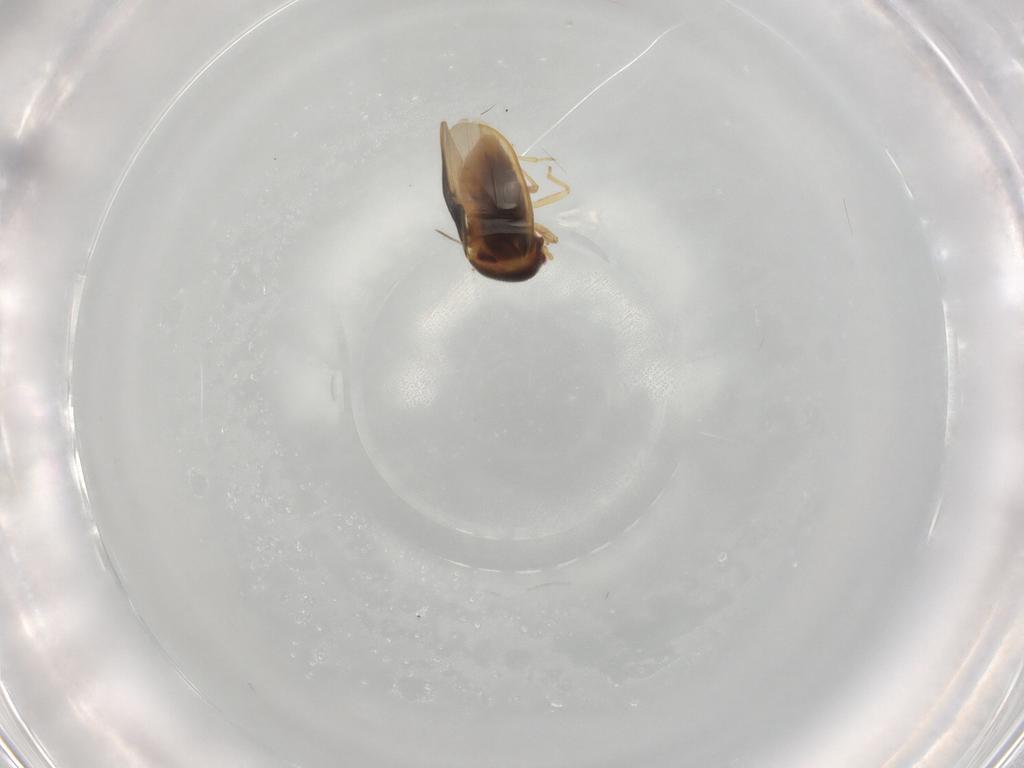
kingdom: Animalia
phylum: Arthropoda
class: Insecta
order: Hemiptera
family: Schizopteridae
